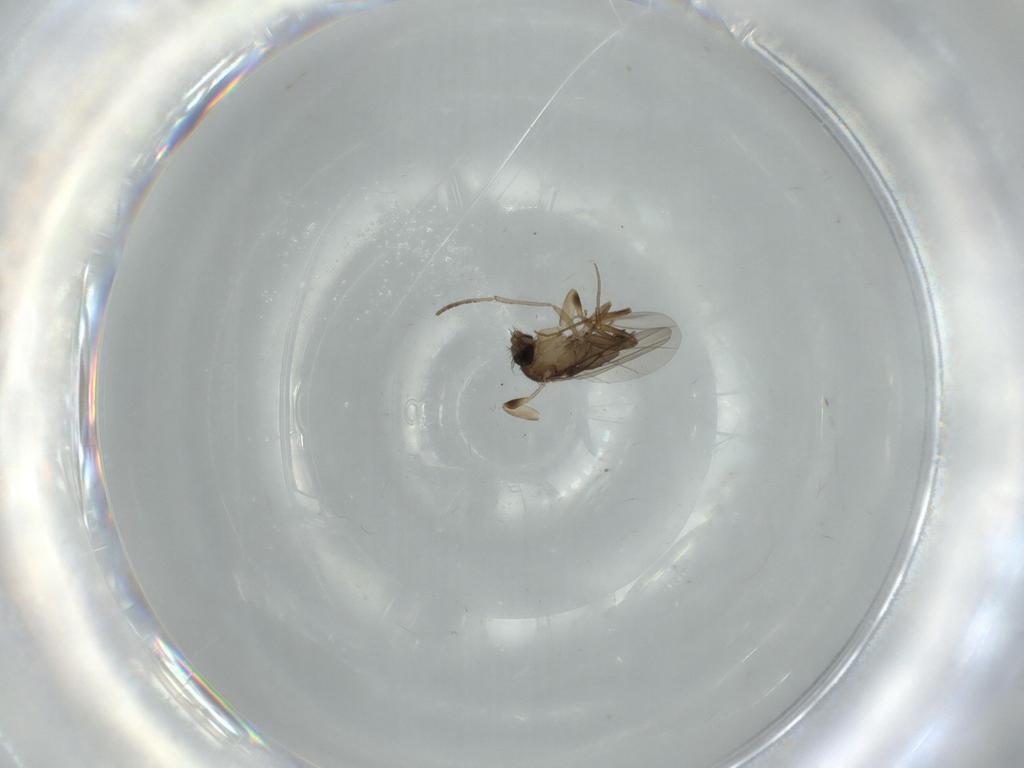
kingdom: Animalia
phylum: Arthropoda
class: Insecta
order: Diptera
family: Phoridae
